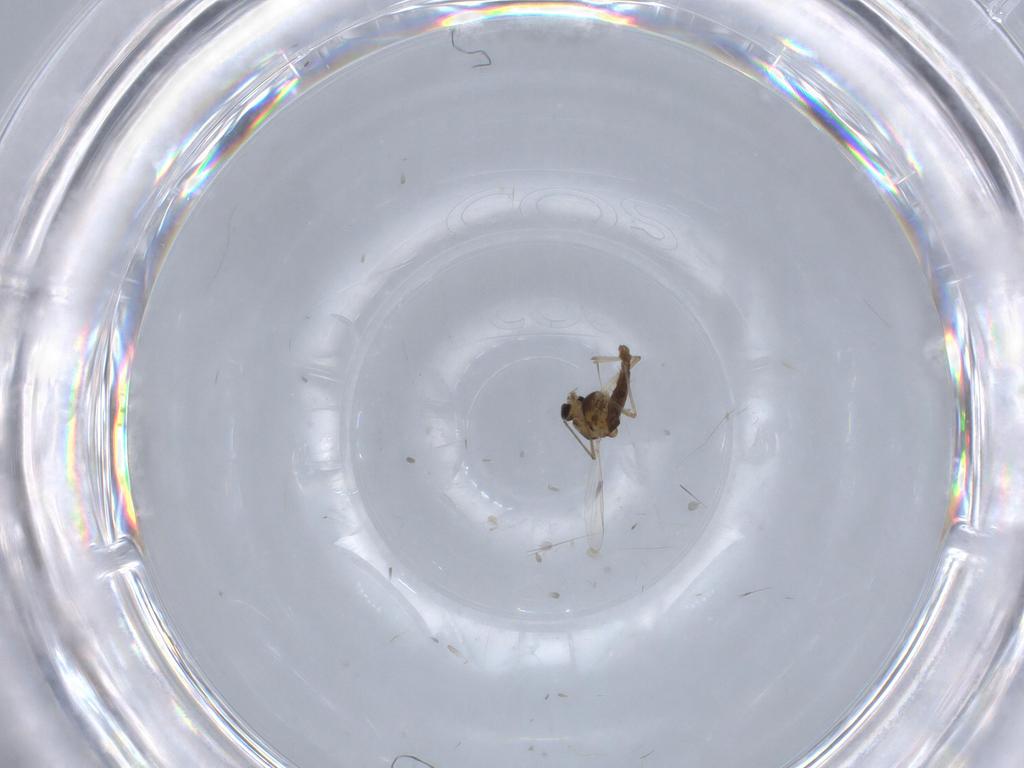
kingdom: Animalia
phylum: Arthropoda
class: Insecta
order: Diptera
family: Chironomidae
